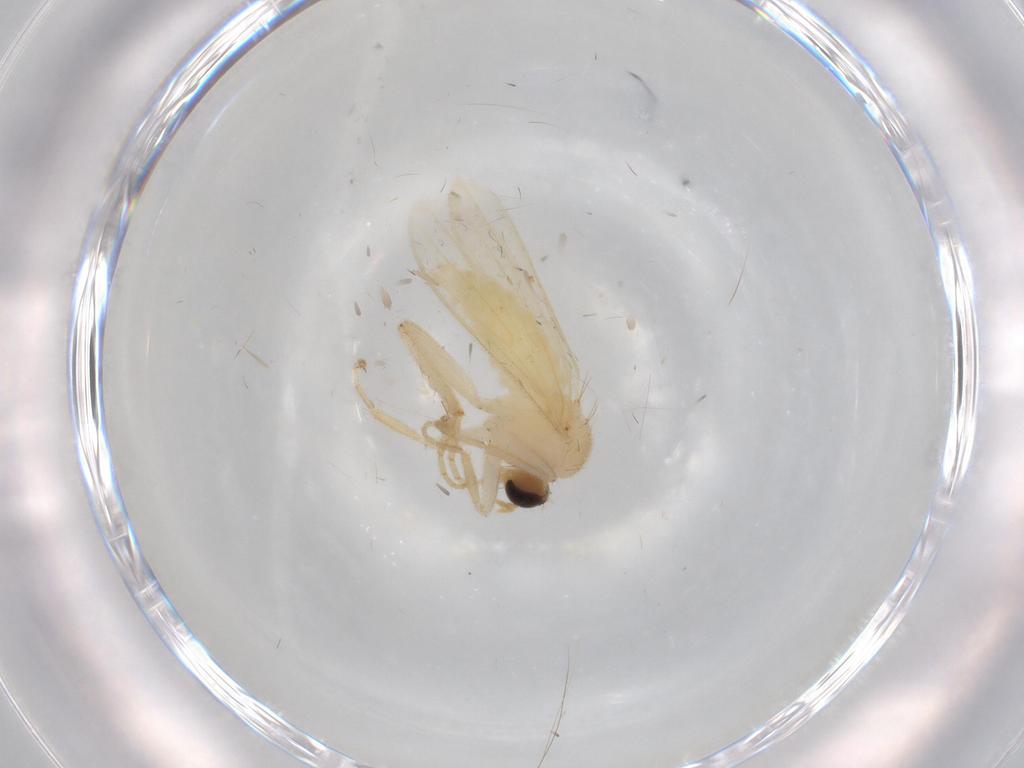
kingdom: Animalia
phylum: Arthropoda
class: Insecta
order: Diptera
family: Hybotidae
